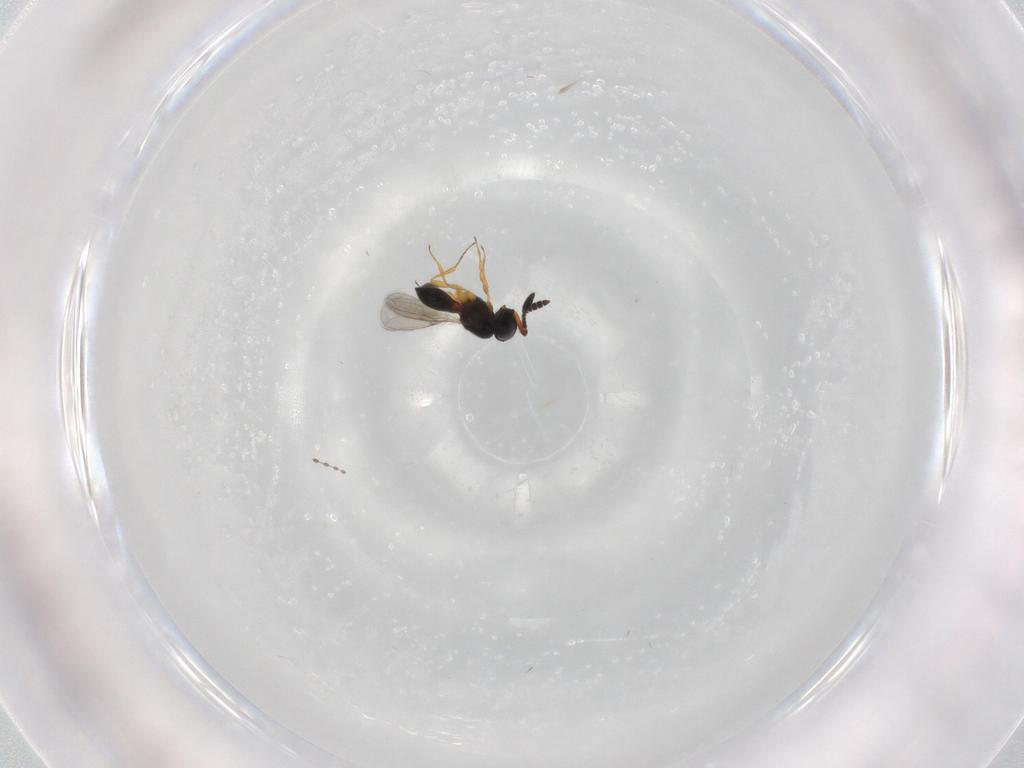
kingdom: Animalia
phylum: Arthropoda
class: Insecta
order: Hymenoptera
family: Scelionidae
